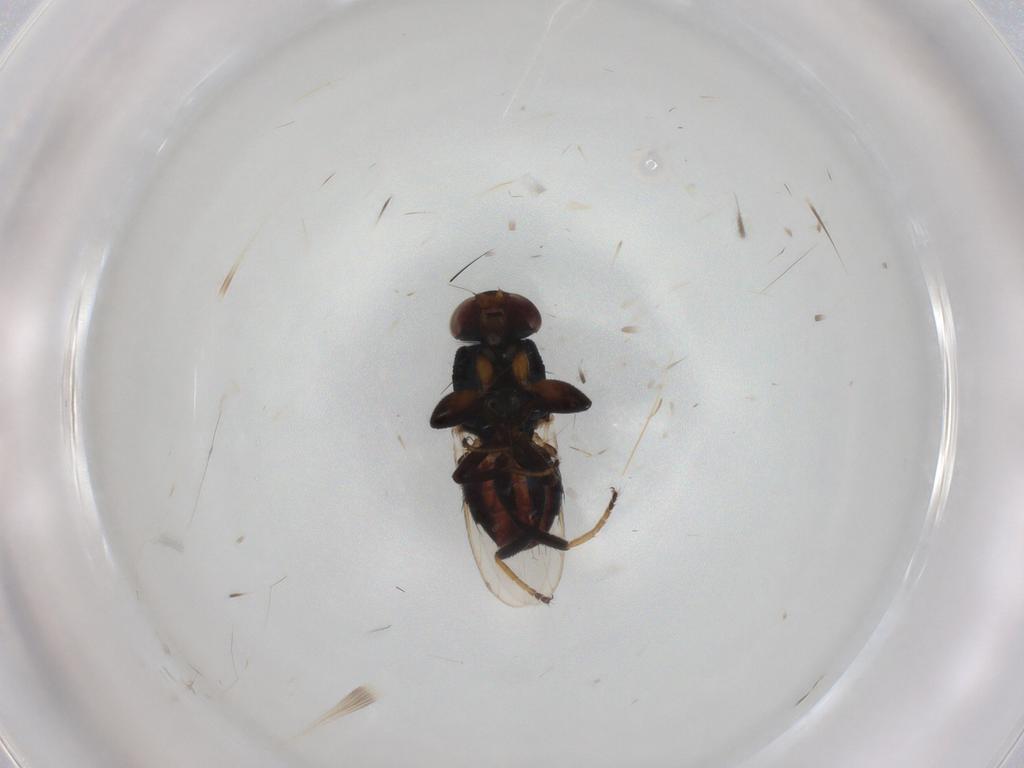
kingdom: Animalia
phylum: Arthropoda
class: Insecta
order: Diptera
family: Chloropidae
